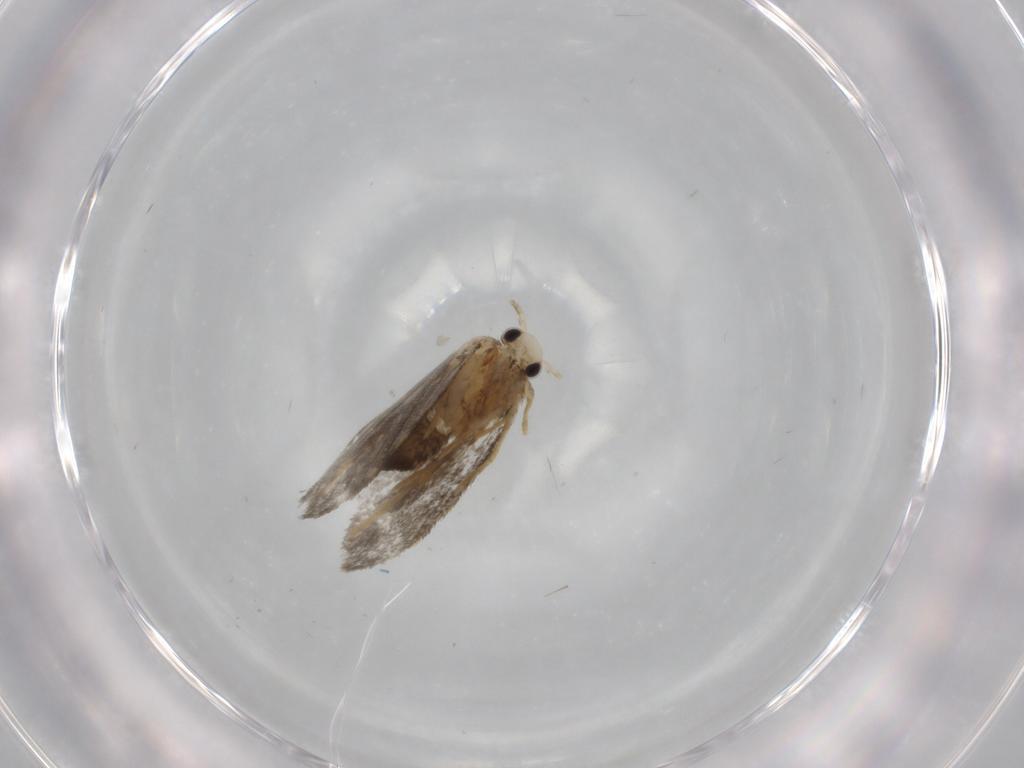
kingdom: Animalia
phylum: Arthropoda
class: Insecta
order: Lepidoptera
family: Psychidae
